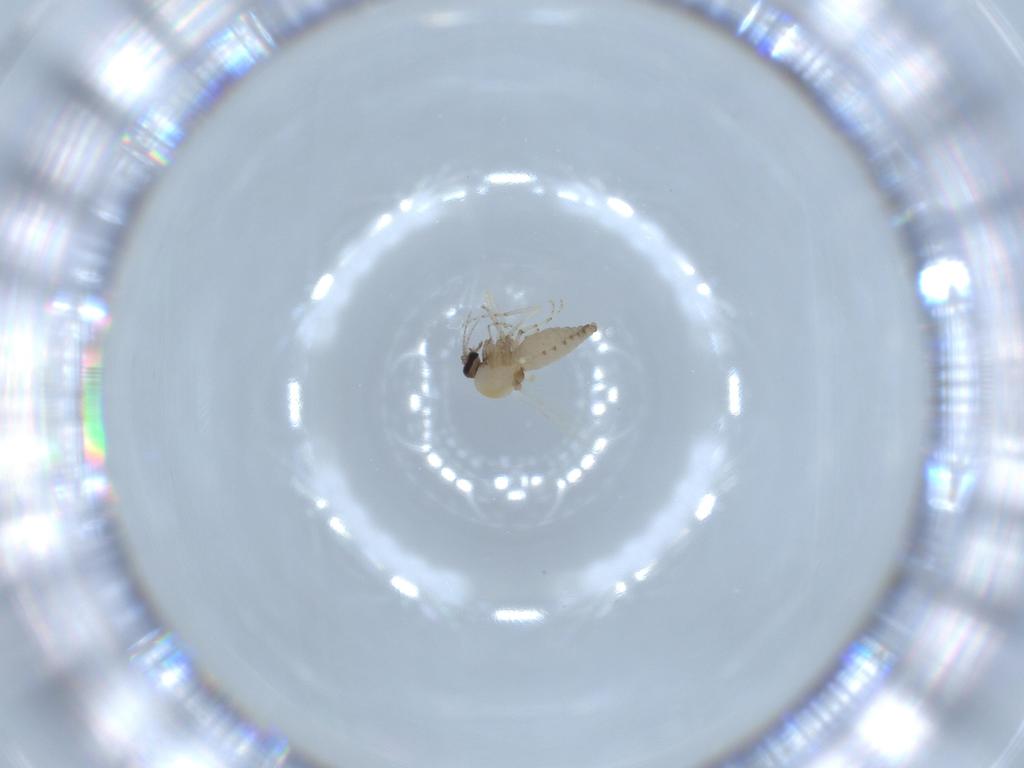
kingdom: Animalia
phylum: Arthropoda
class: Insecta
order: Diptera
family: Ceratopogonidae
